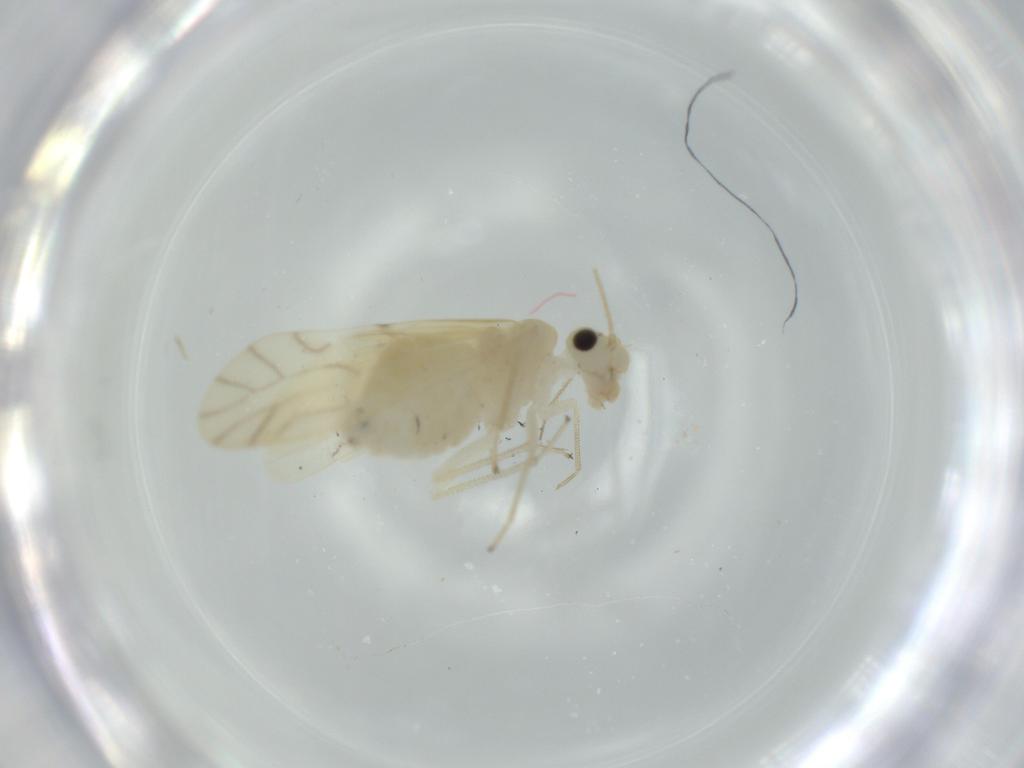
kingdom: Animalia
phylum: Arthropoda
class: Insecta
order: Psocodea
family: Caeciliusidae
